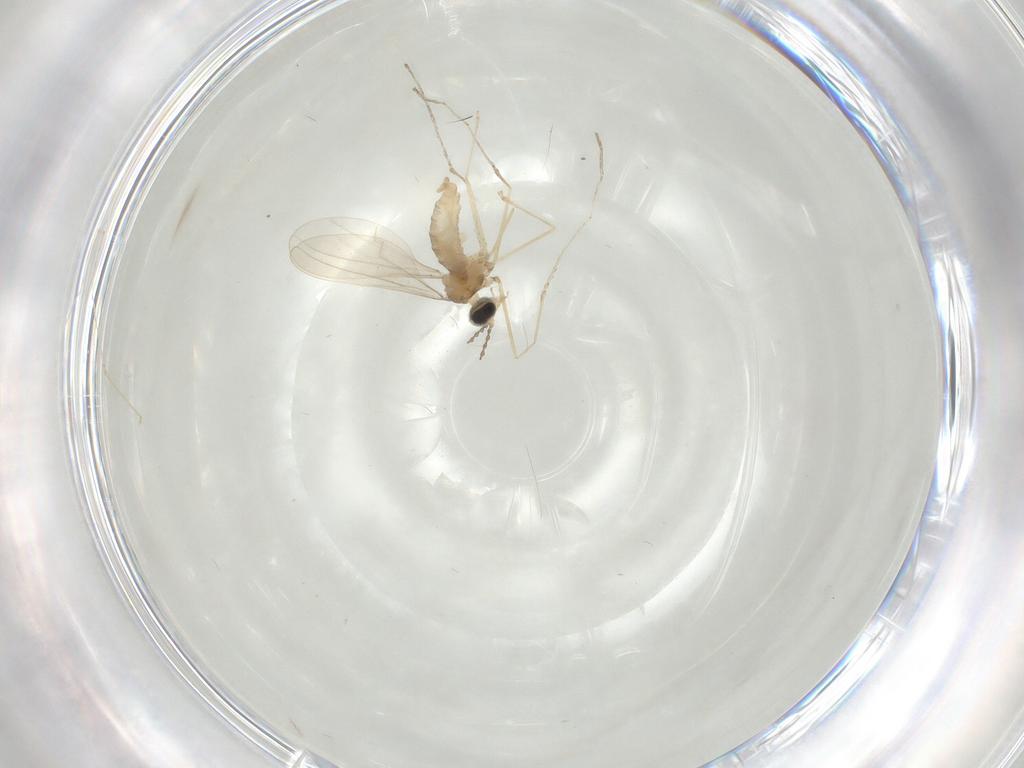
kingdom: Animalia
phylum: Arthropoda
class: Insecta
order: Diptera
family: Cecidomyiidae
